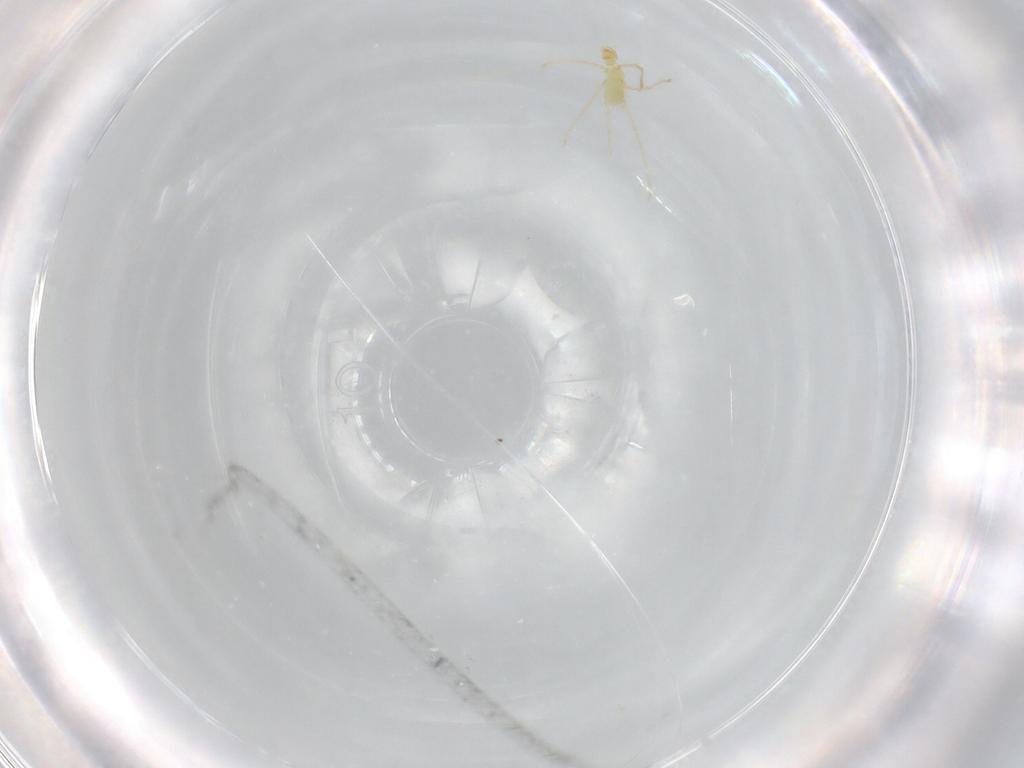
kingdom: Animalia
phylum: Arthropoda
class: Arachnida
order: Trombidiformes
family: Erythraeidae
